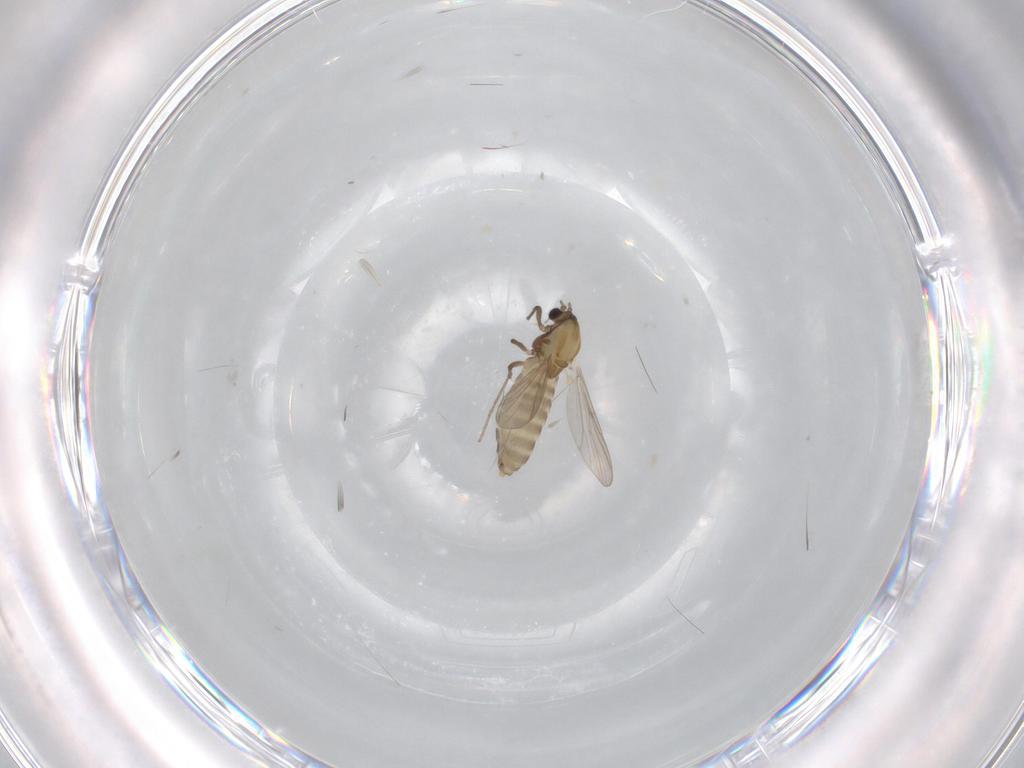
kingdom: Animalia
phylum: Arthropoda
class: Insecta
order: Diptera
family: Chironomidae
